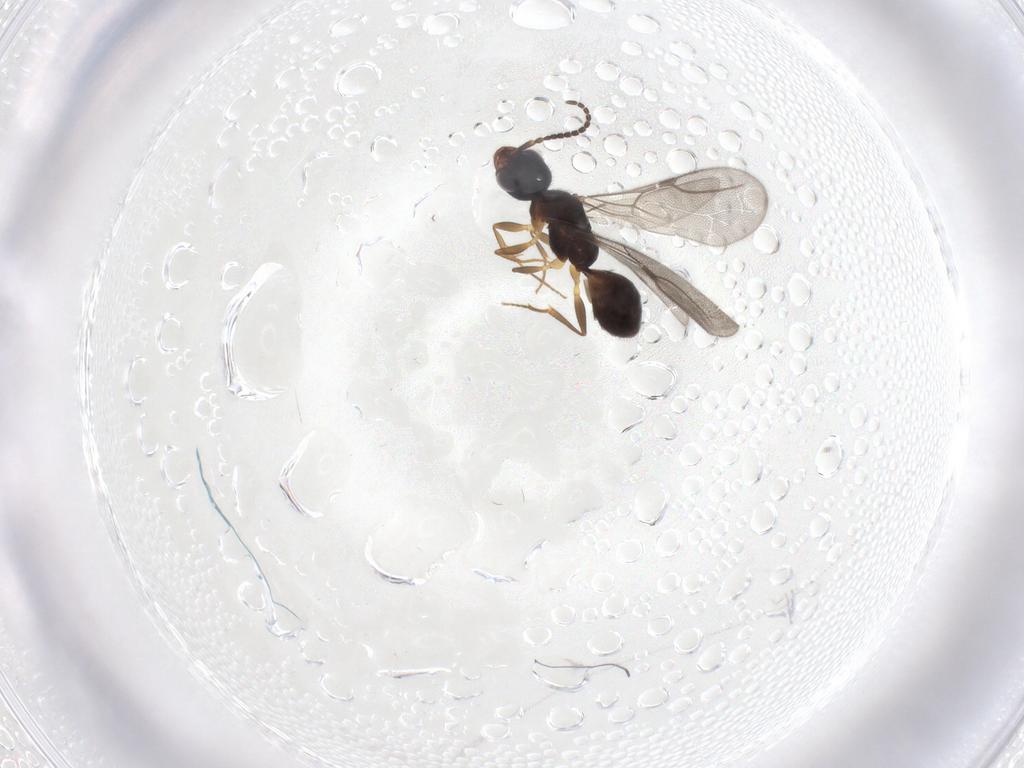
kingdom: Animalia
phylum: Arthropoda
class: Insecta
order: Hymenoptera
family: Bethylidae
